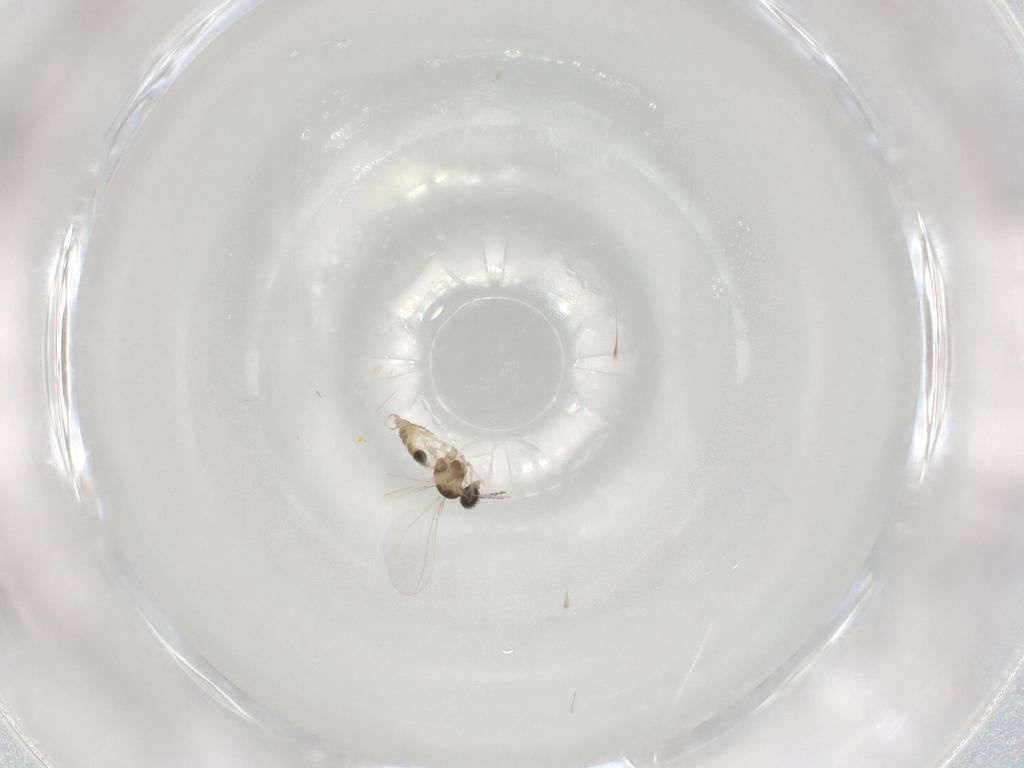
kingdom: Animalia
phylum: Arthropoda
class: Insecta
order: Diptera
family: Cecidomyiidae
